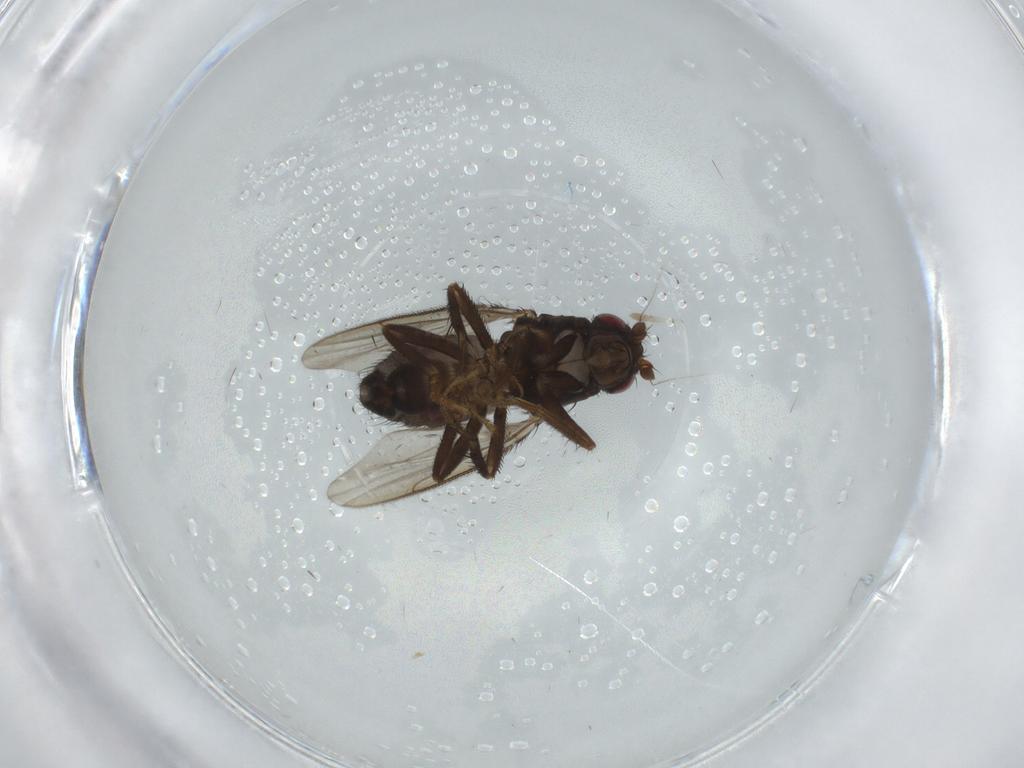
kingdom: Animalia
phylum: Arthropoda
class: Insecta
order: Diptera
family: Sphaeroceridae
